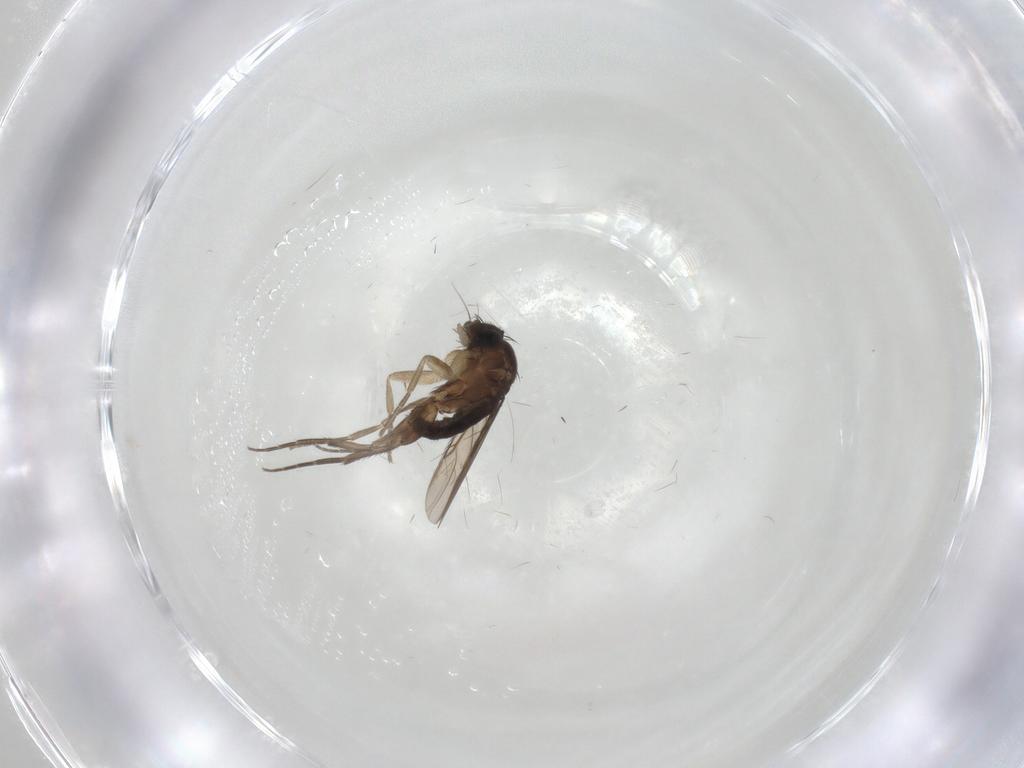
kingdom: Animalia
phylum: Arthropoda
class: Insecta
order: Diptera
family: Phoridae
